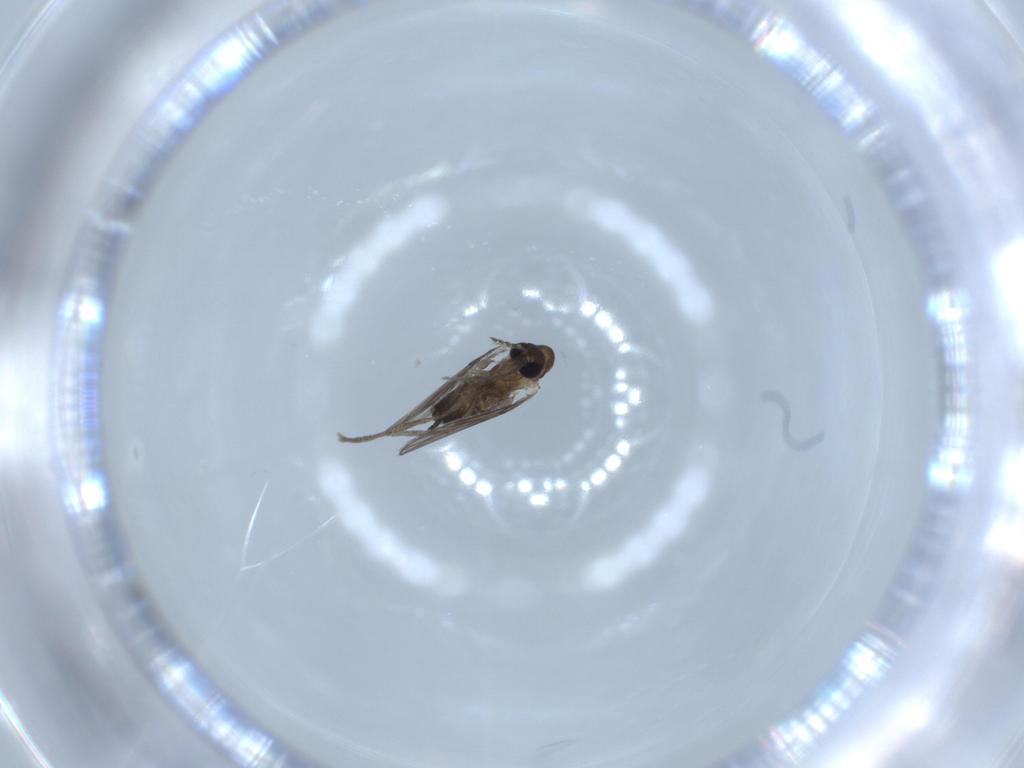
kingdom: Animalia
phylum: Arthropoda
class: Insecta
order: Diptera
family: Psychodidae
